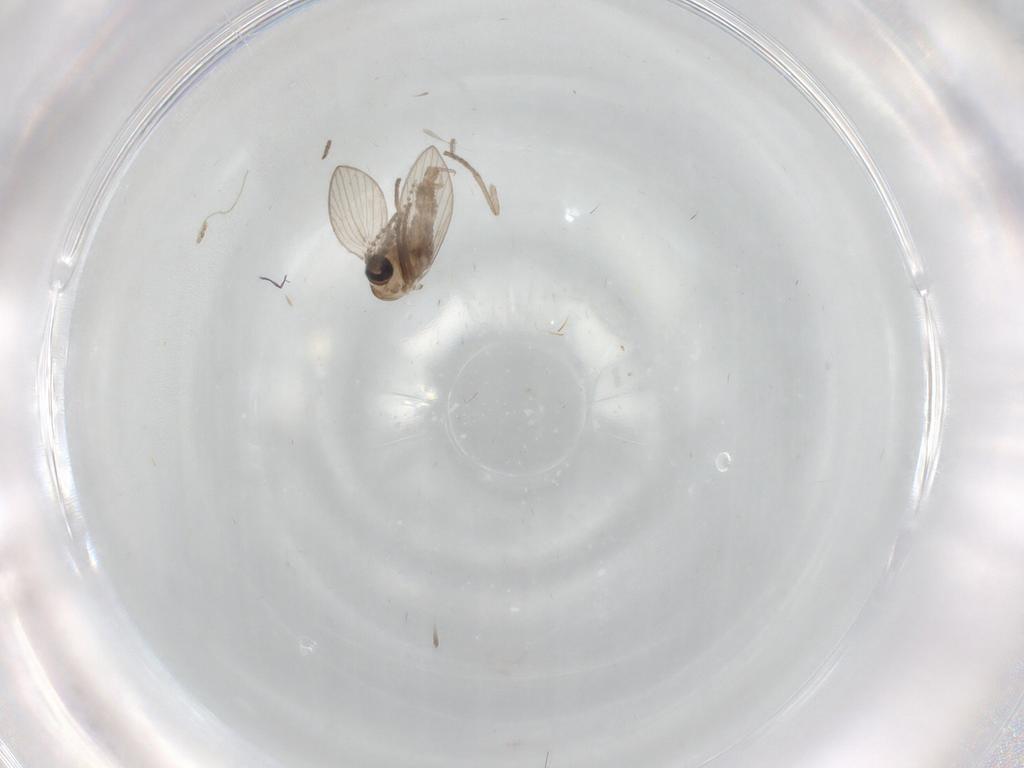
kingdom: Animalia
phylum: Arthropoda
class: Insecta
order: Diptera
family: Psychodidae
